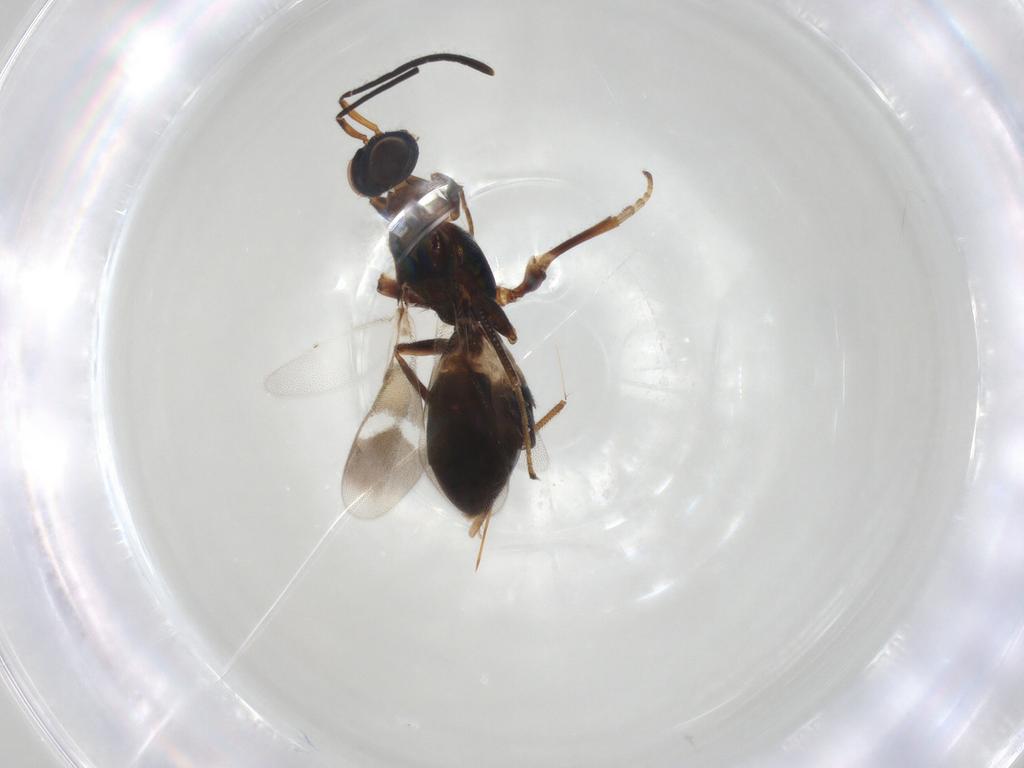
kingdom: Animalia
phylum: Arthropoda
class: Insecta
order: Hymenoptera
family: Eupelmidae
